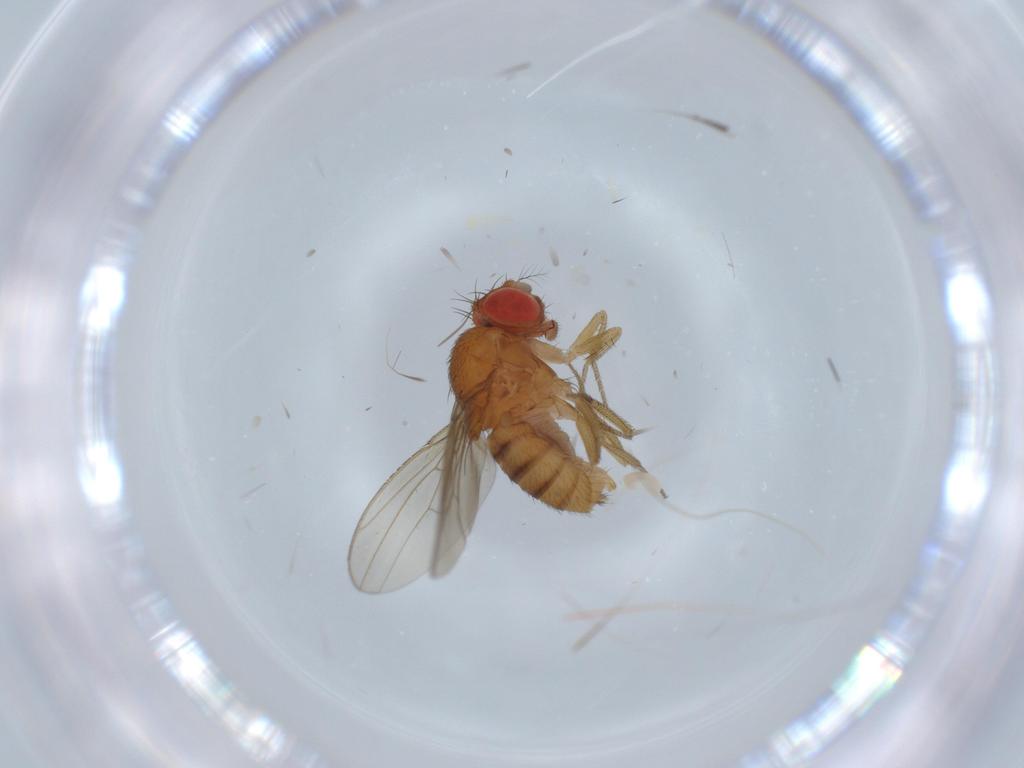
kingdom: Animalia
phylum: Arthropoda
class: Insecta
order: Diptera
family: Drosophilidae
